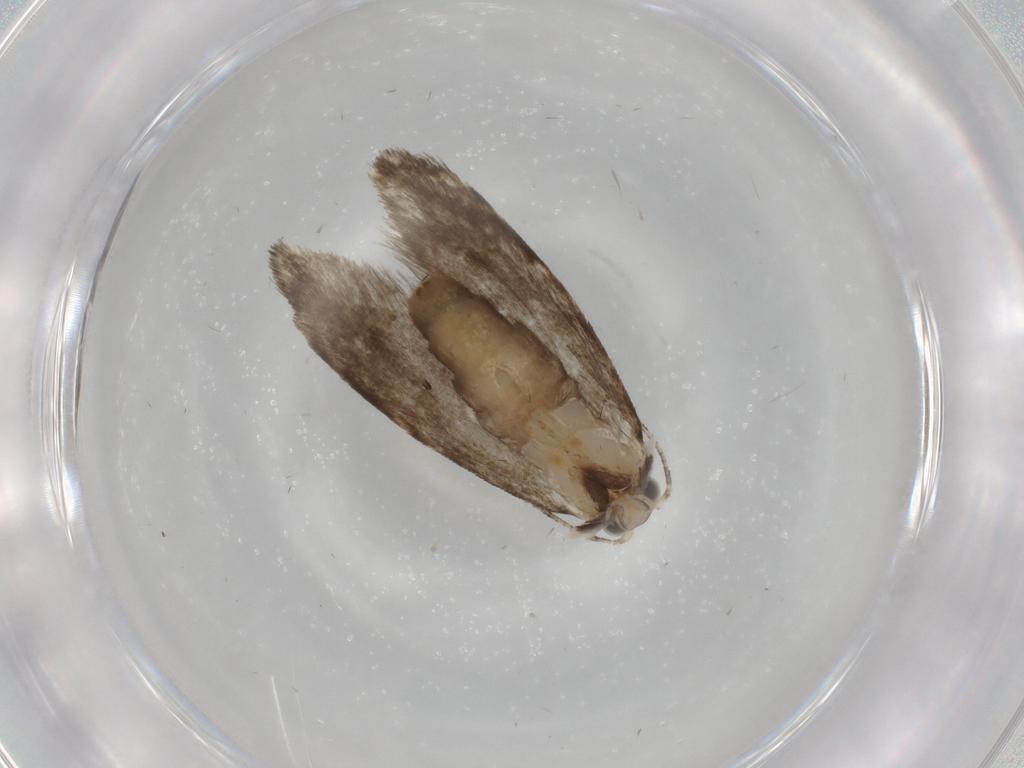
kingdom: Animalia
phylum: Arthropoda
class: Insecta
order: Lepidoptera
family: Tineidae
